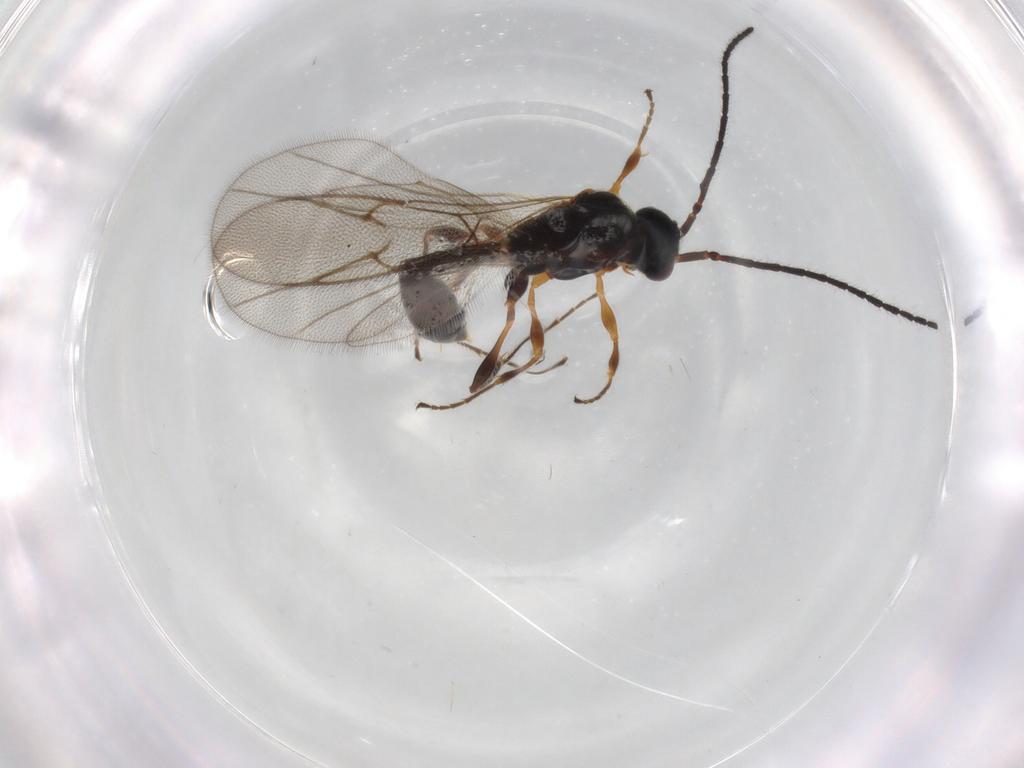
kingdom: Animalia
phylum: Arthropoda
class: Insecta
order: Hymenoptera
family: Diapriidae
